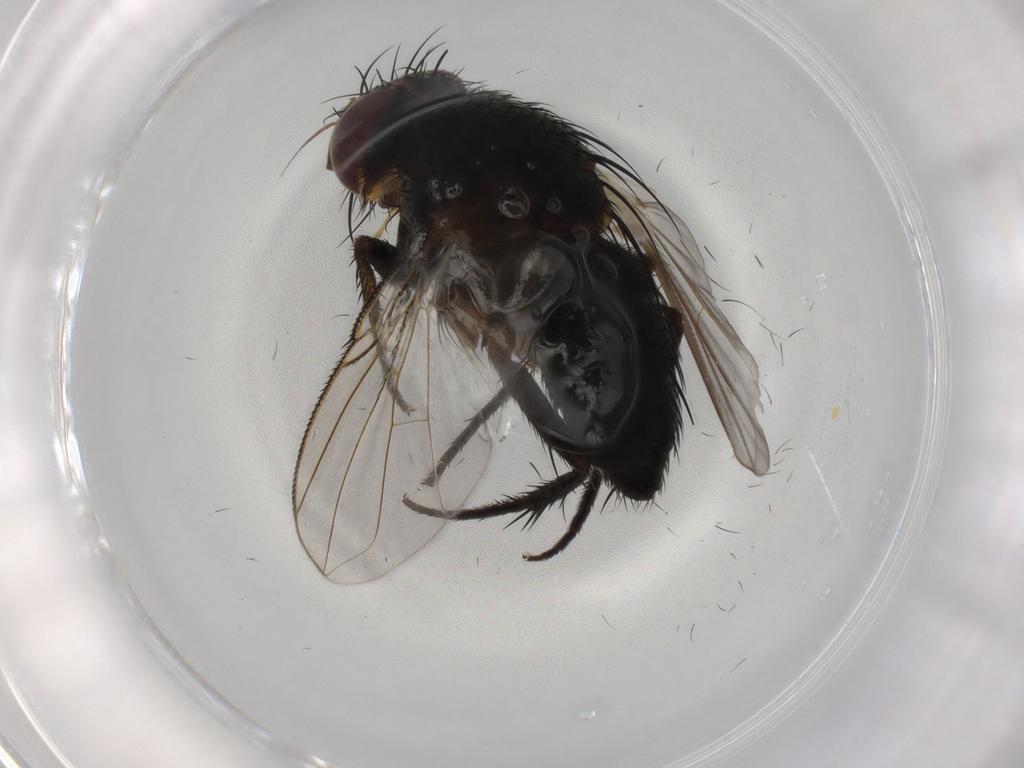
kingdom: Animalia
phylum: Arthropoda
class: Insecta
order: Diptera
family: Tachinidae
